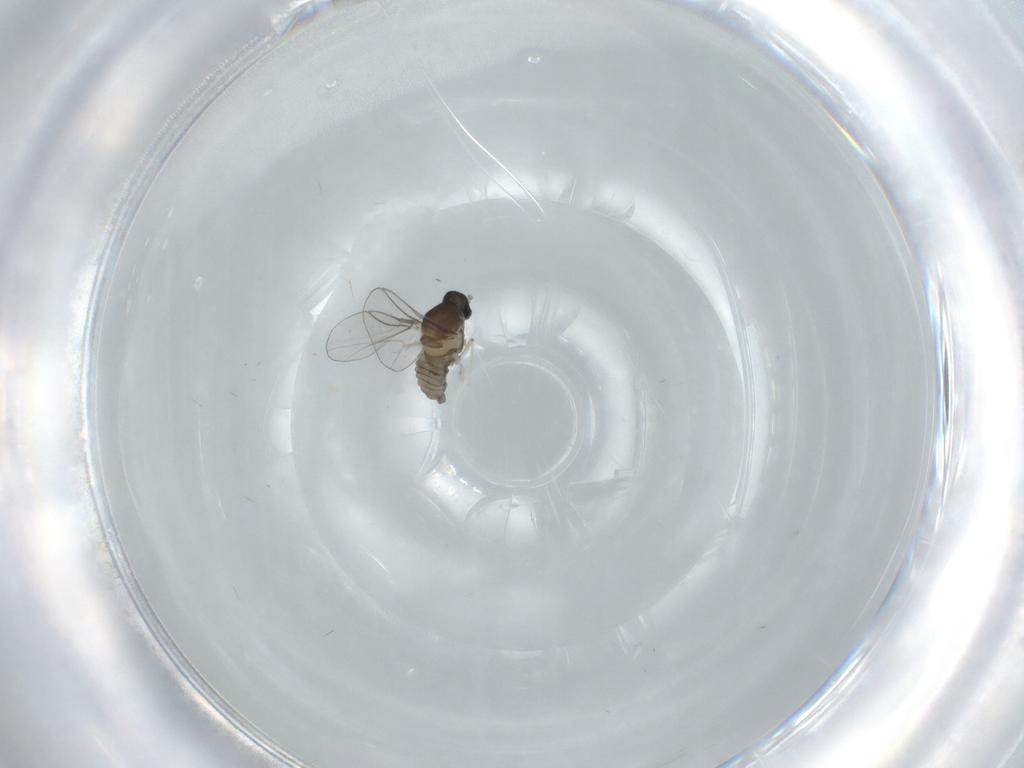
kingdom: Animalia
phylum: Arthropoda
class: Insecta
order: Diptera
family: Cecidomyiidae
